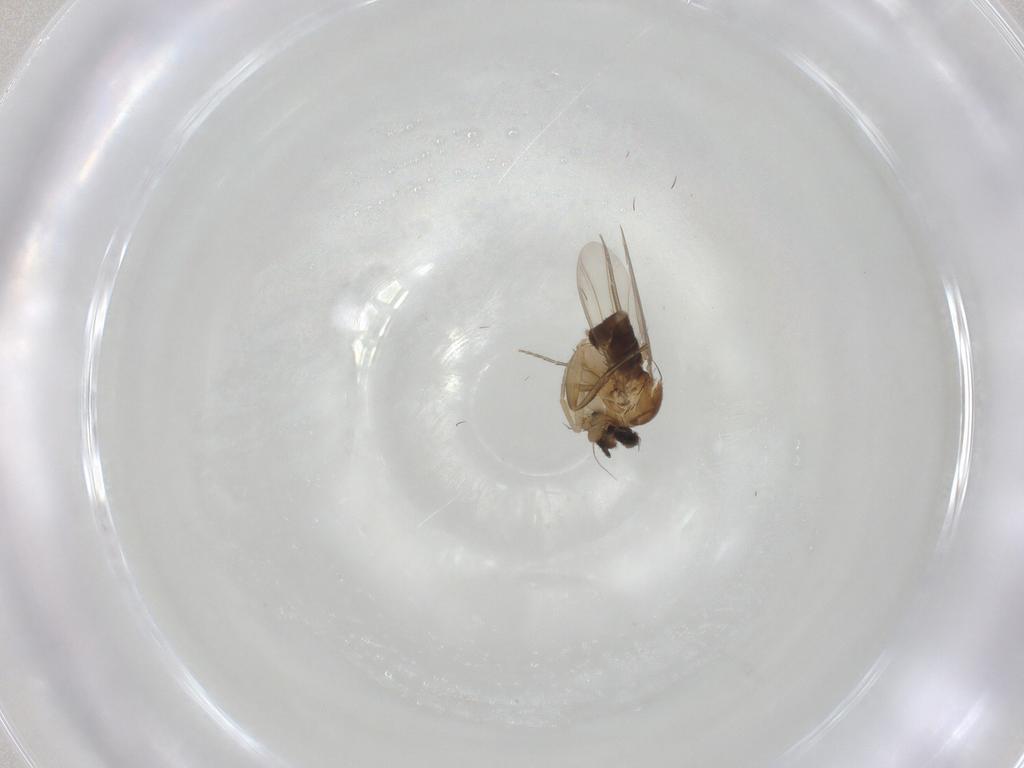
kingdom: Animalia
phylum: Arthropoda
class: Insecta
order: Diptera
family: Phoridae
